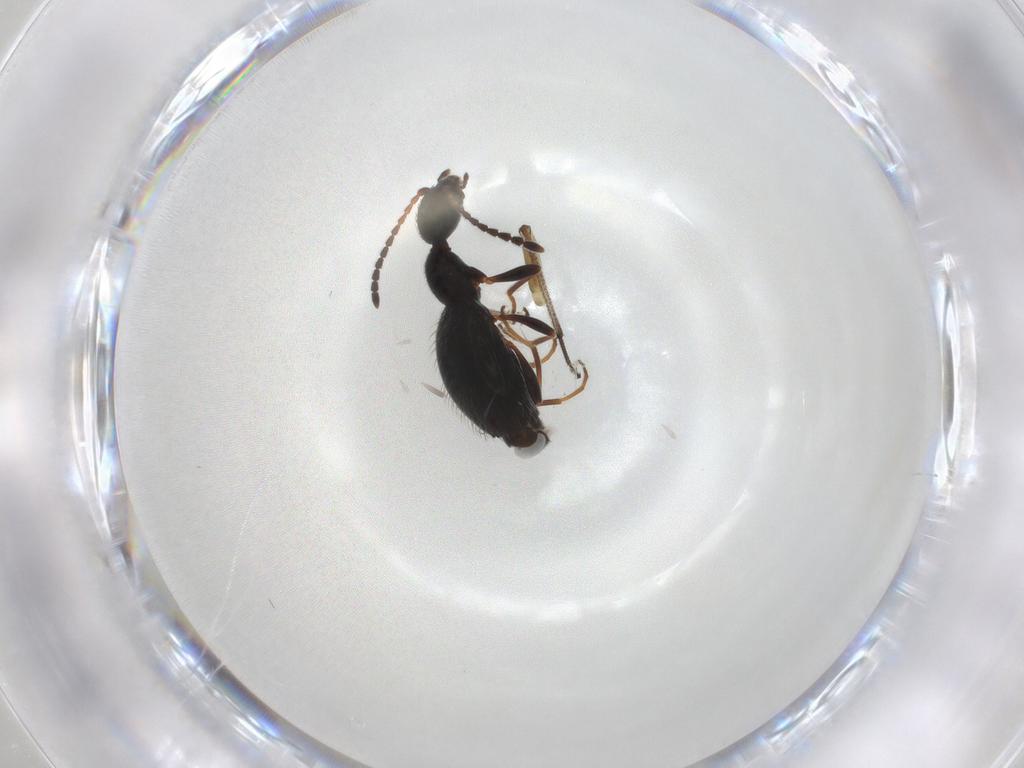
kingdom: Animalia
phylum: Arthropoda
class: Insecta
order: Coleoptera
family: Anthicidae
